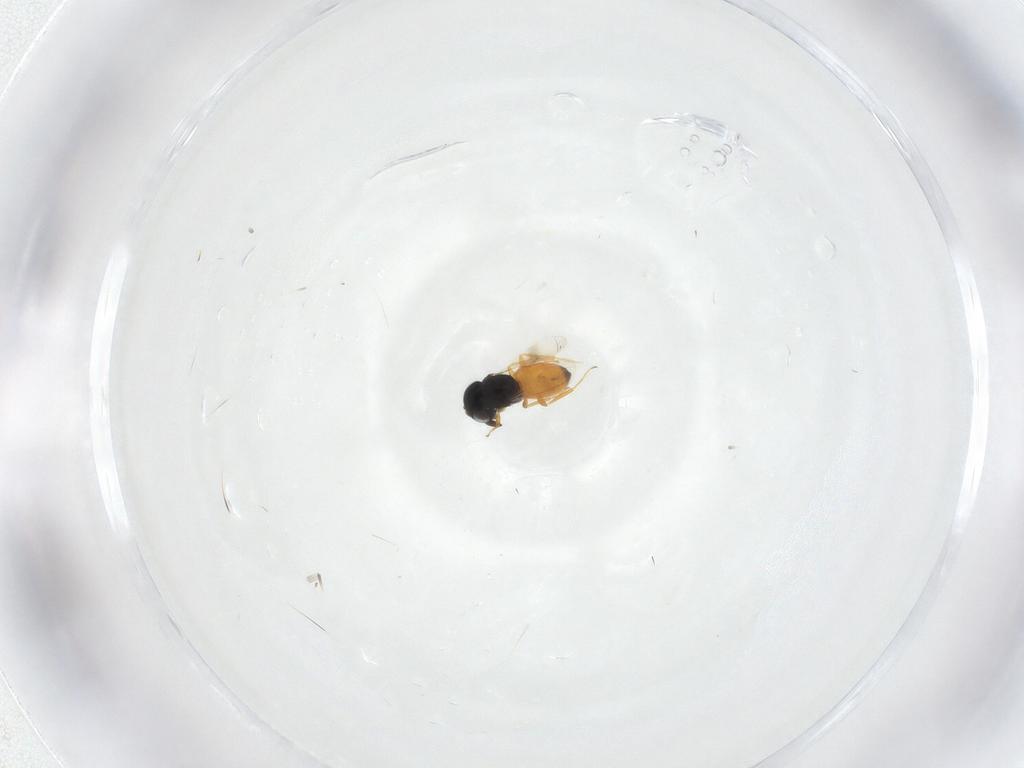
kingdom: Animalia
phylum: Arthropoda
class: Insecta
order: Hymenoptera
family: Scelionidae
